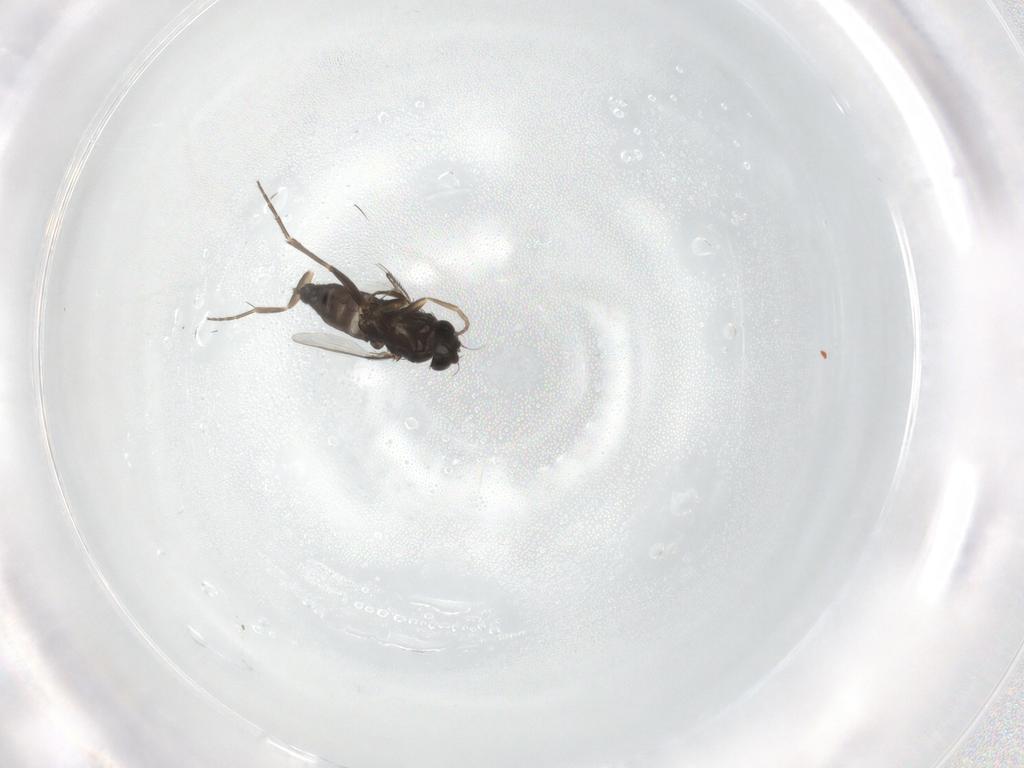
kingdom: Animalia
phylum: Arthropoda
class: Insecta
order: Diptera
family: Phoridae
